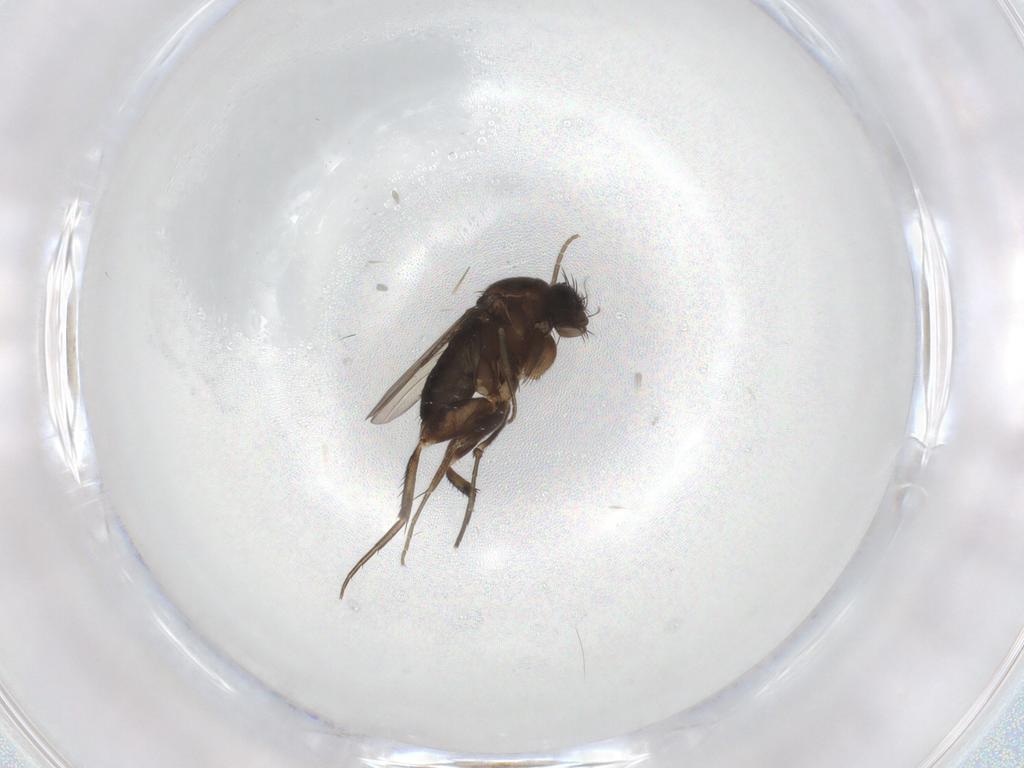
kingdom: Animalia
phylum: Arthropoda
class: Insecta
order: Diptera
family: Phoridae
